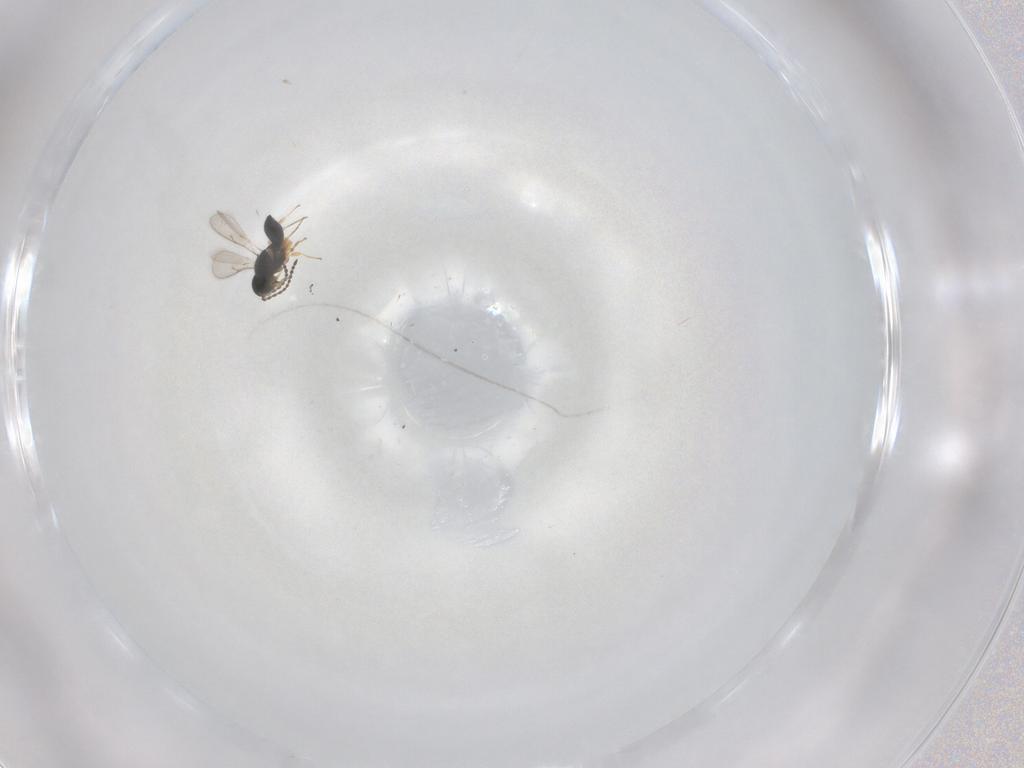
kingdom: Animalia
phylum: Arthropoda
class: Insecta
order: Hymenoptera
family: Scelionidae
